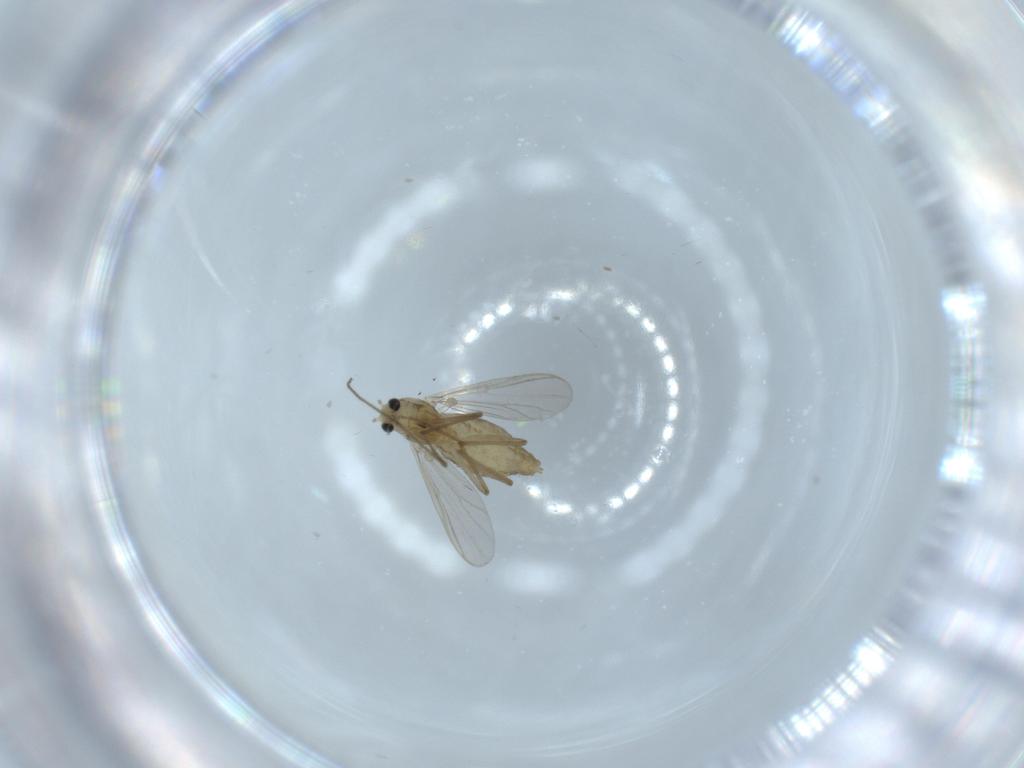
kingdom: Animalia
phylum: Arthropoda
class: Insecta
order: Diptera
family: Chironomidae
